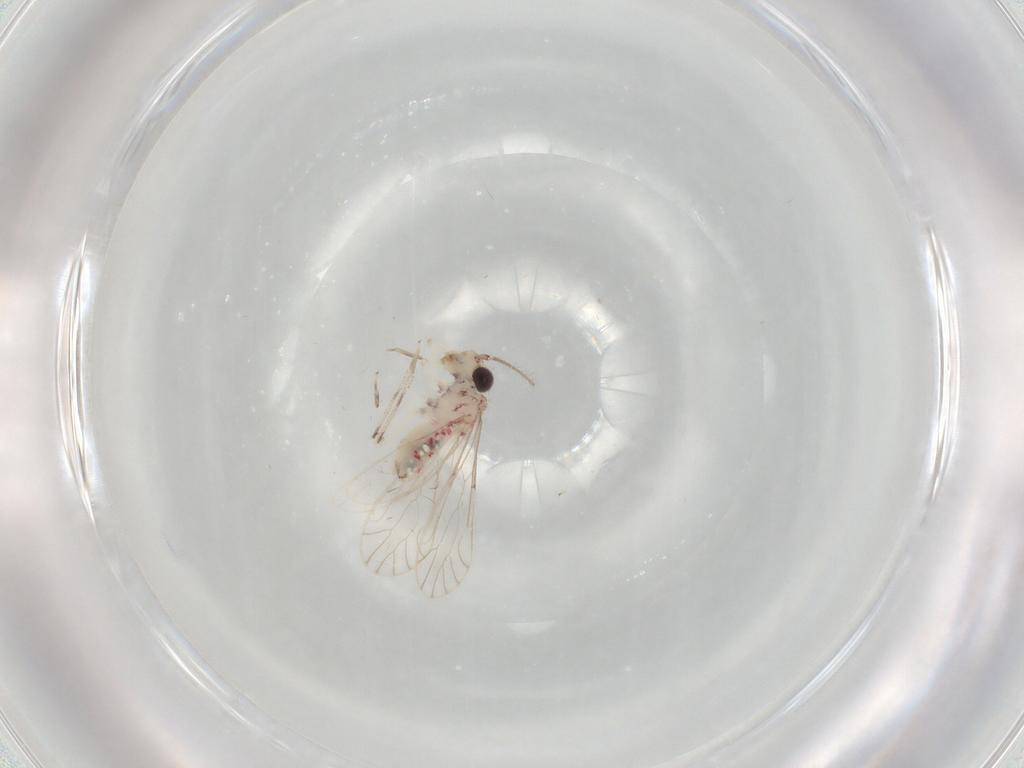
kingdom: Animalia
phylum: Arthropoda
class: Insecta
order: Psocodea
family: Caeciliusidae
